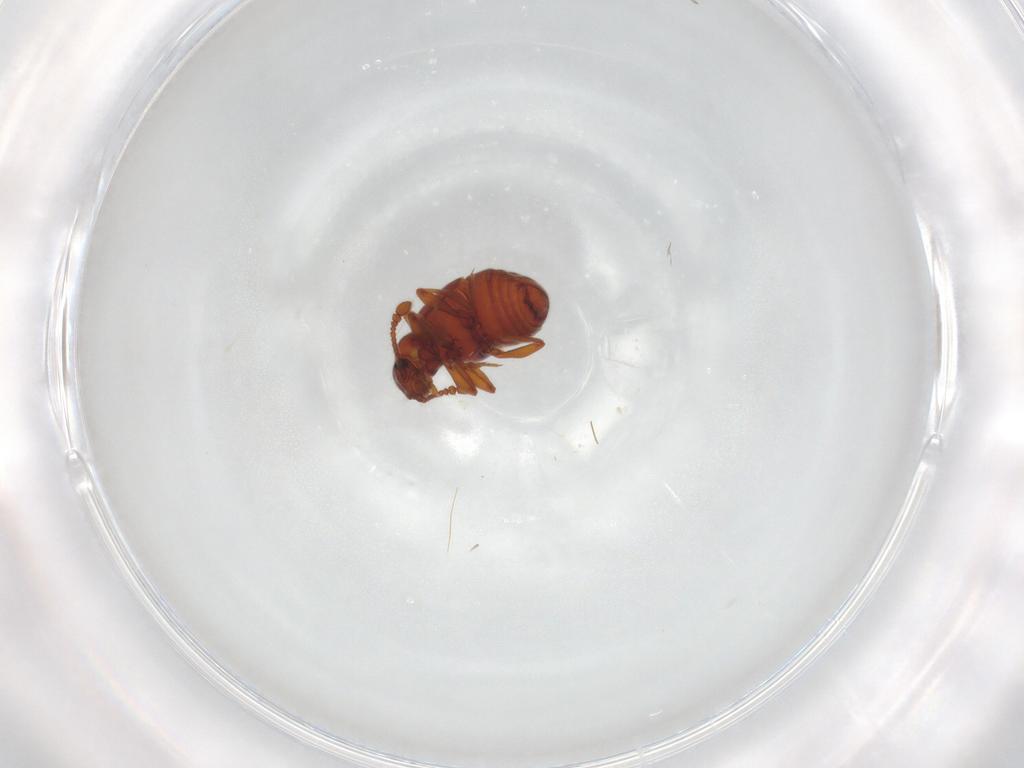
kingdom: Animalia
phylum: Arthropoda
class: Insecta
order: Coleoptera
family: Staphylinidae
